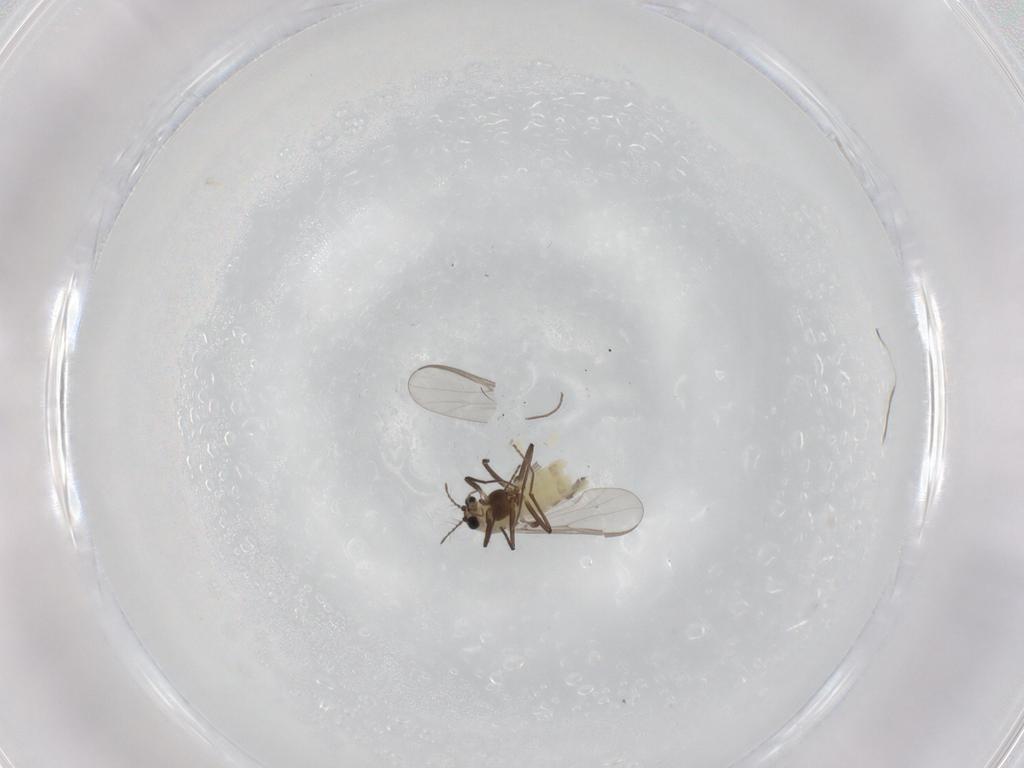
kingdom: Animalia
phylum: Arthropoda
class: Insecta
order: Diptera
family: Chironomidae
